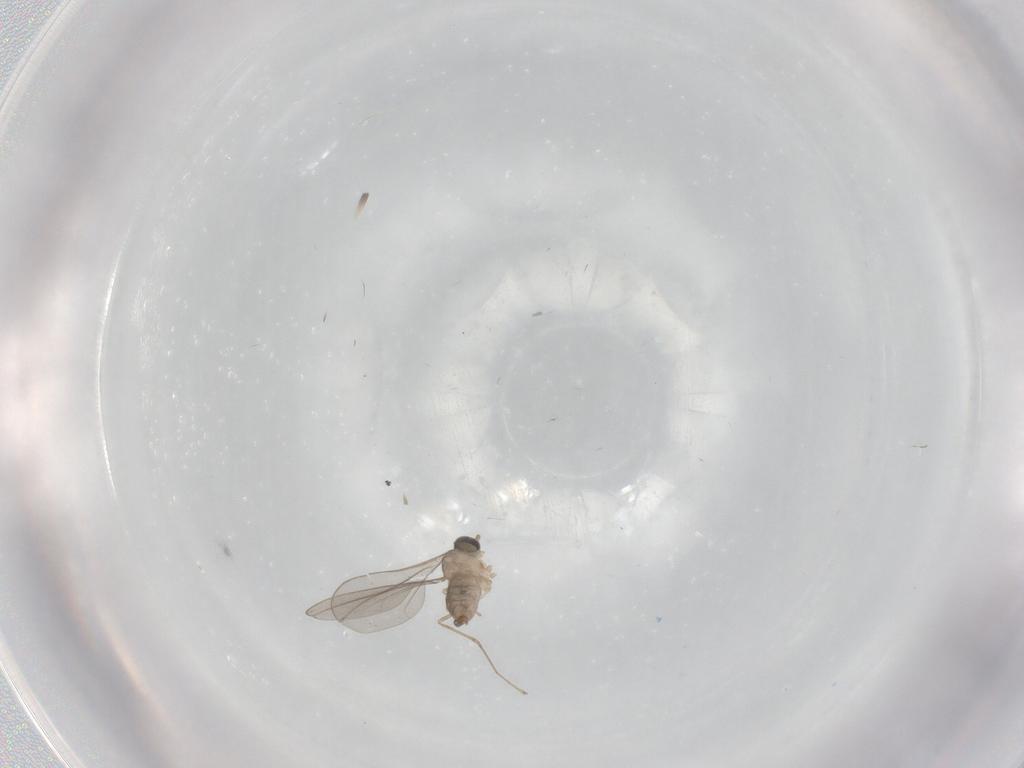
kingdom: Animalia
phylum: Arthropoda
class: Insecta
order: Diptera
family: Cecidomyiidae
